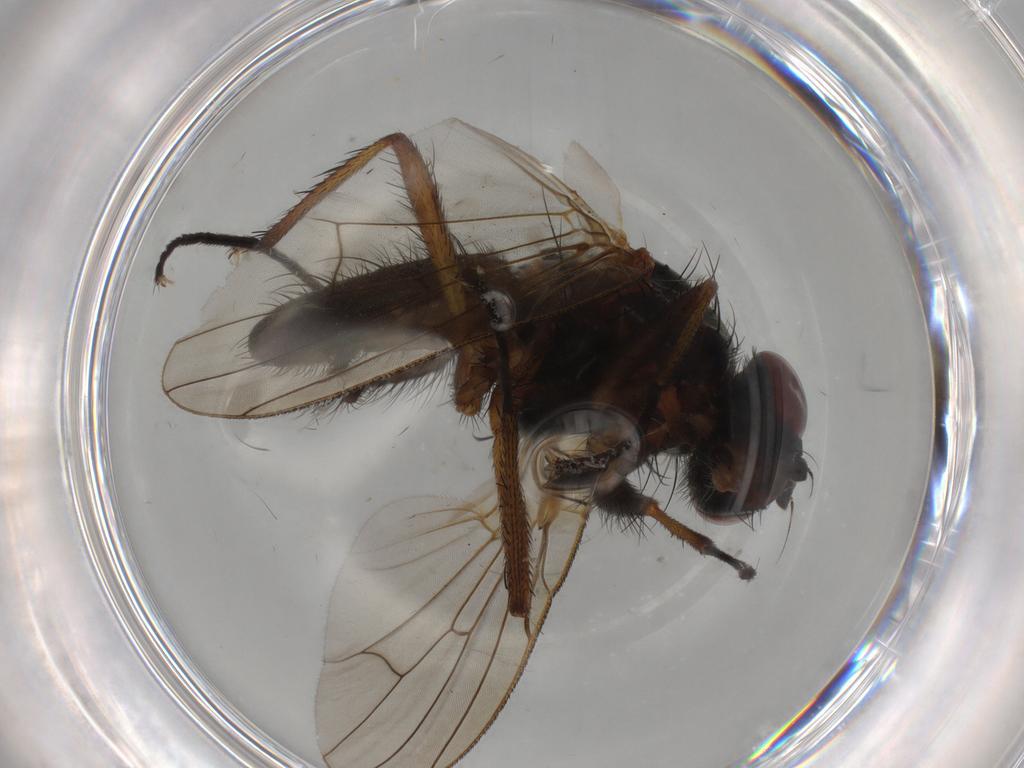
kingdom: Animalia
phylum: Arthropoda
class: Insecta
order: Diptera
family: Anthomyiidae
